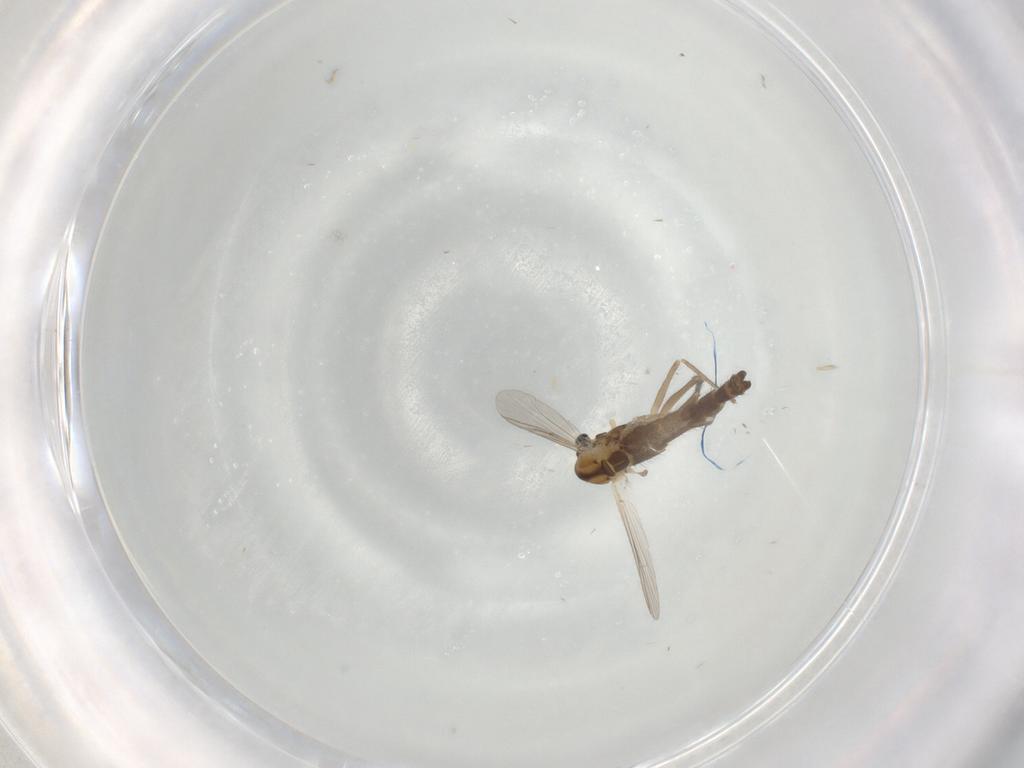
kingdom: Animalia
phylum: Arthropoda
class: Insecta
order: Diptera
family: Chironomidae
